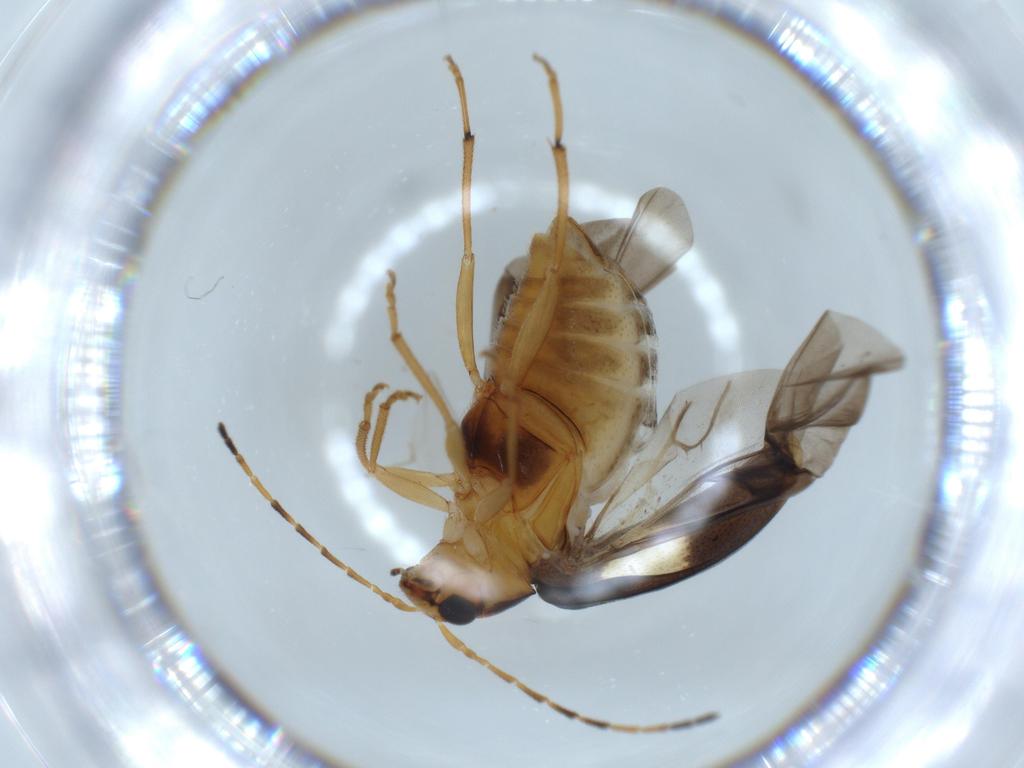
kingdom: Animalia
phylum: Arthropoda
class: Insecta
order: Coleoptera
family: Chrysomelidae
